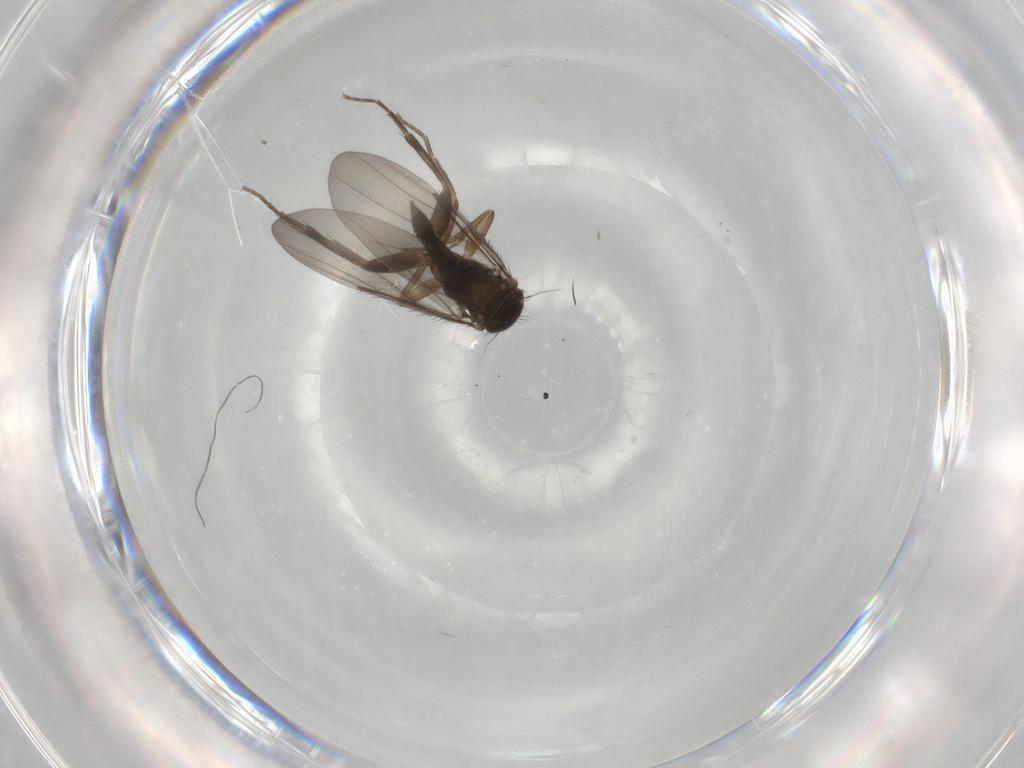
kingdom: Animalia
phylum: Arthropoda
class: Insecta
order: Diptera
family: Phoridae
